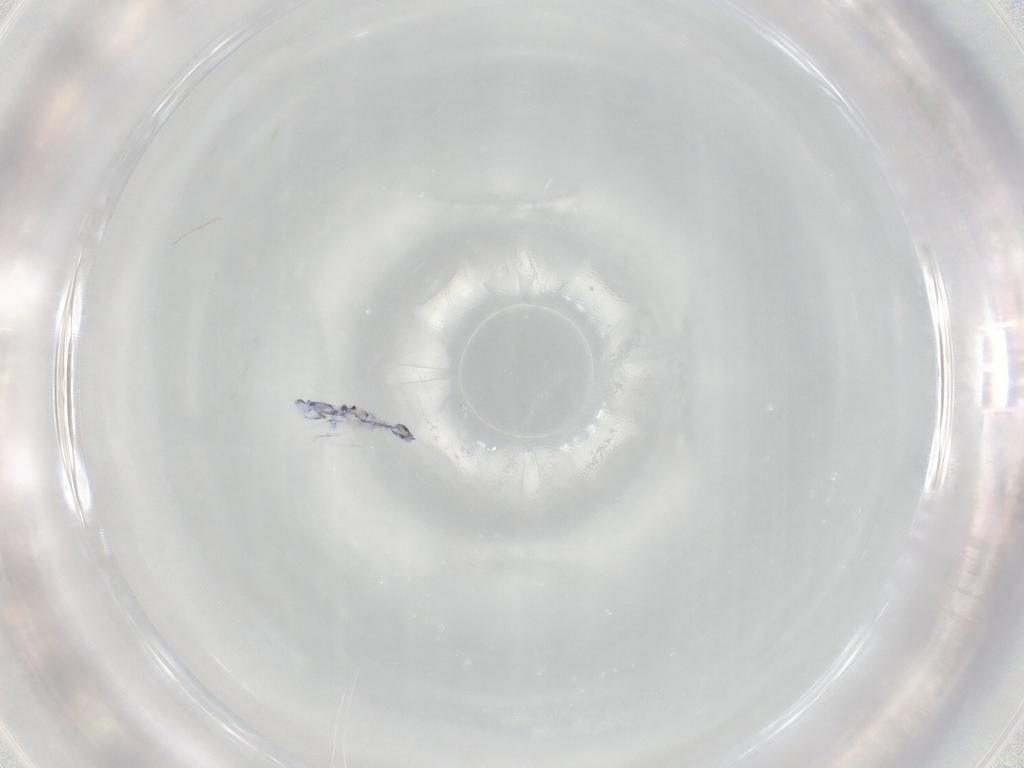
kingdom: Animalia
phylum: Arthropoda
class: Collembola
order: Entomobryomorpha
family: Entomobryidae
